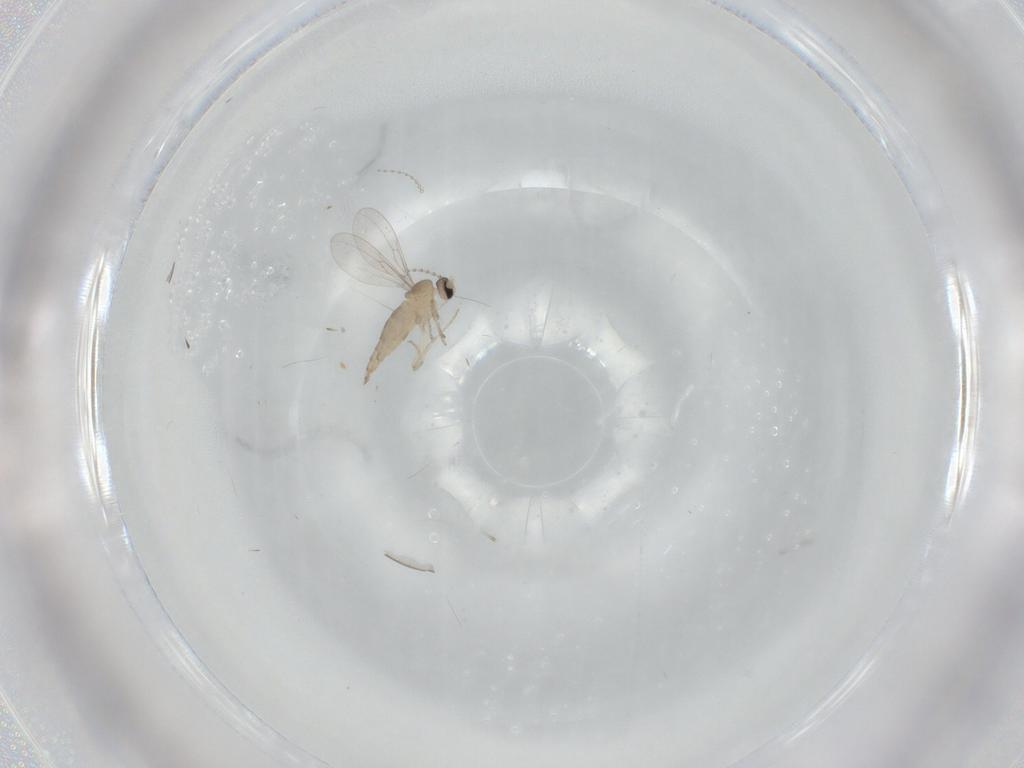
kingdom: Animalia
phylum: Arthropoda
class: Insecta
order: Diptera
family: Cecidomyiidae
